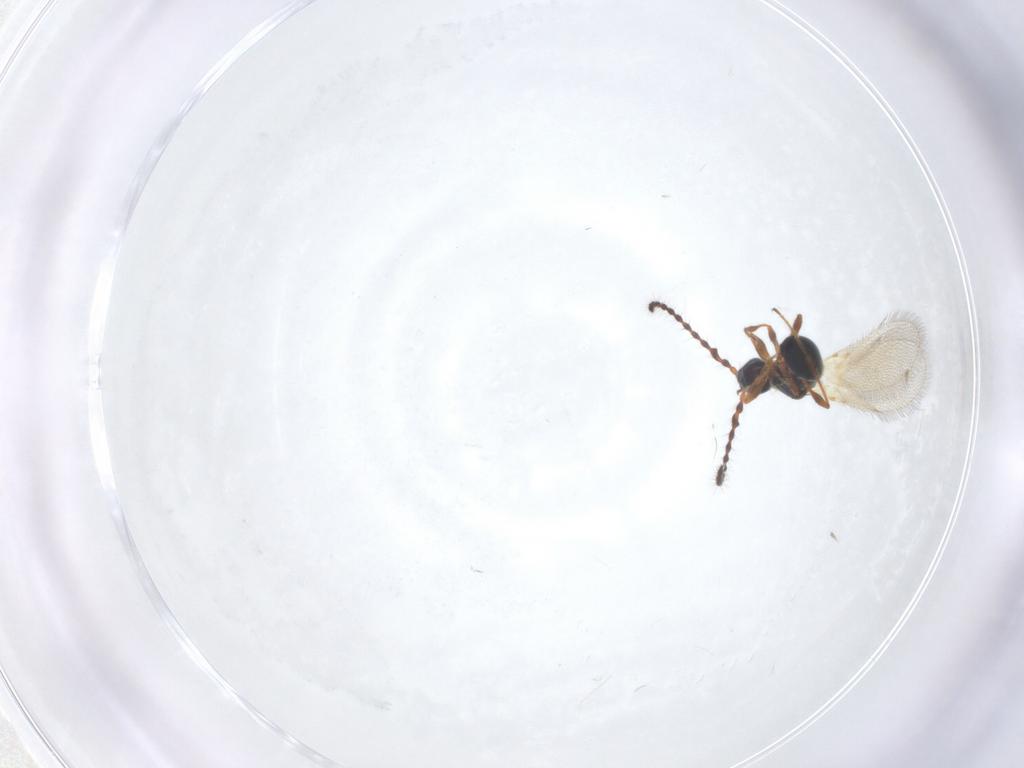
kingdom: Animalia
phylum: Arthropoda
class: Insecta
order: Hymenoptera
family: Diapriidae
